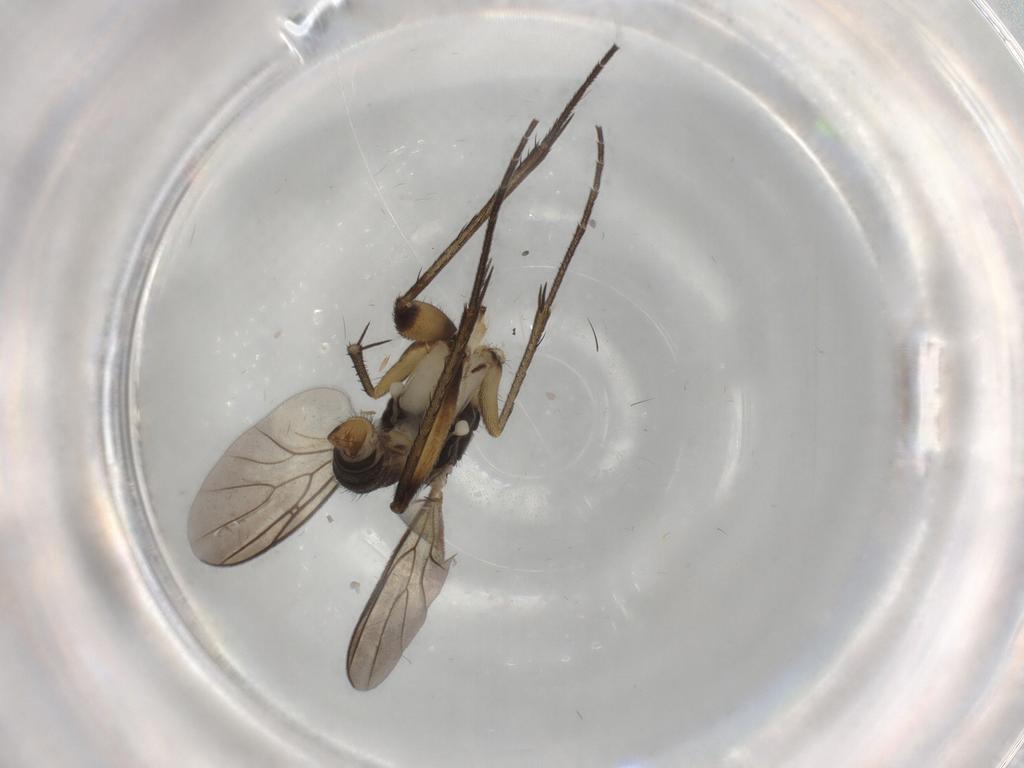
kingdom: Animalia
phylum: Arthropoda
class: Insecta
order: Diptera
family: Mycetophilidae
